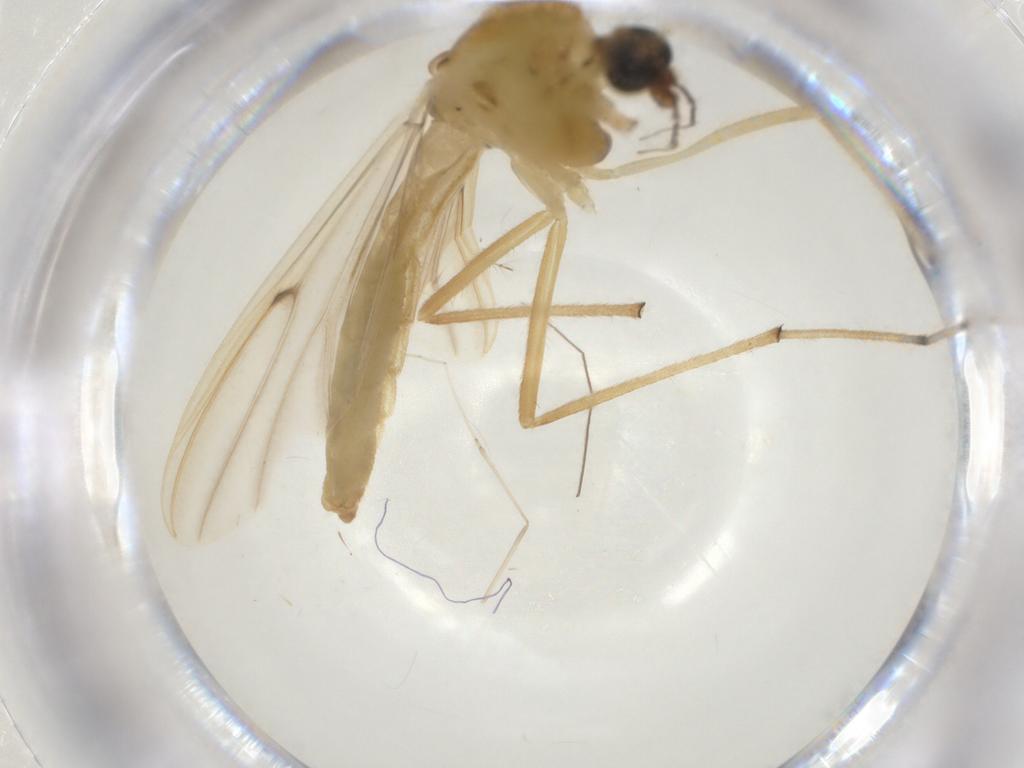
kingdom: Animalia
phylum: Arthropoda
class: Insecta
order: Diptera
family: Chironomidae
